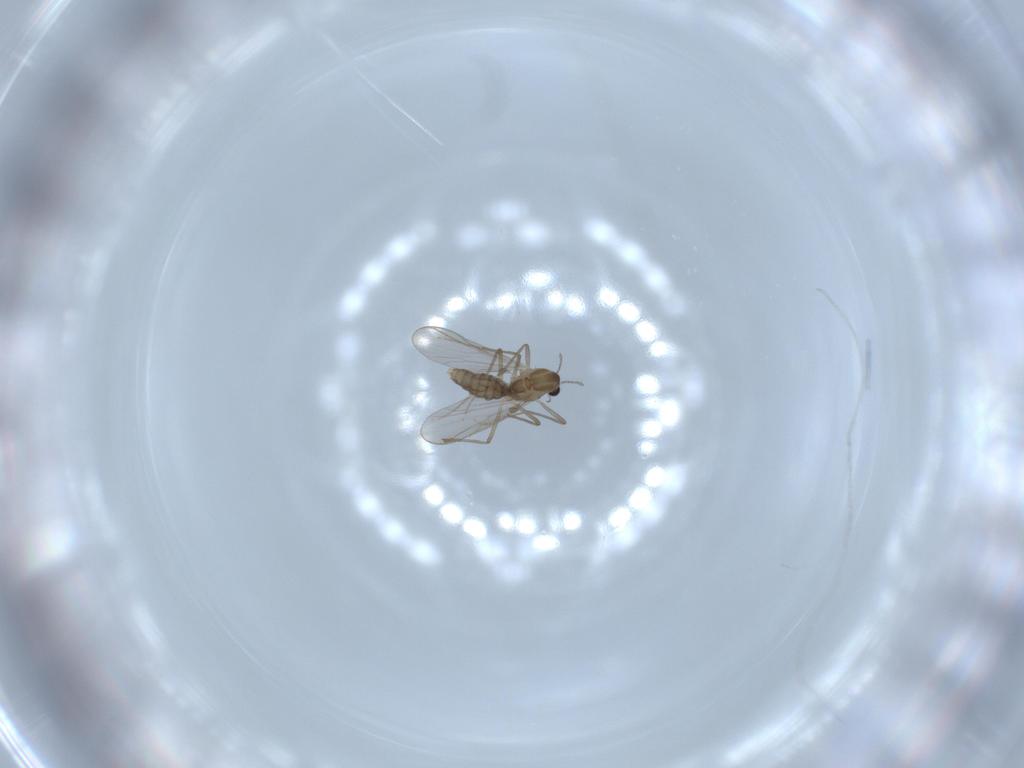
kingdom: Animalia
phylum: Arthropoda
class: Insecta
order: Diptera
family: Chironomidae
